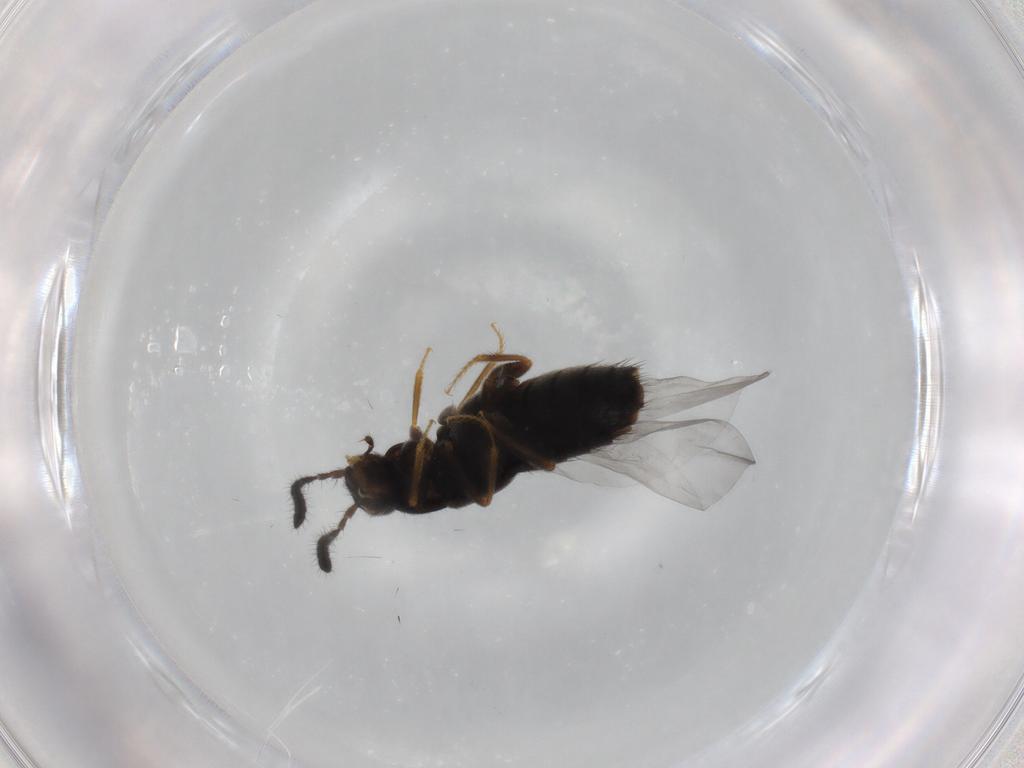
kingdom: Animalia
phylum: Arthropoda
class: Insecta
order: Coleoptera
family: Staphylinidae
